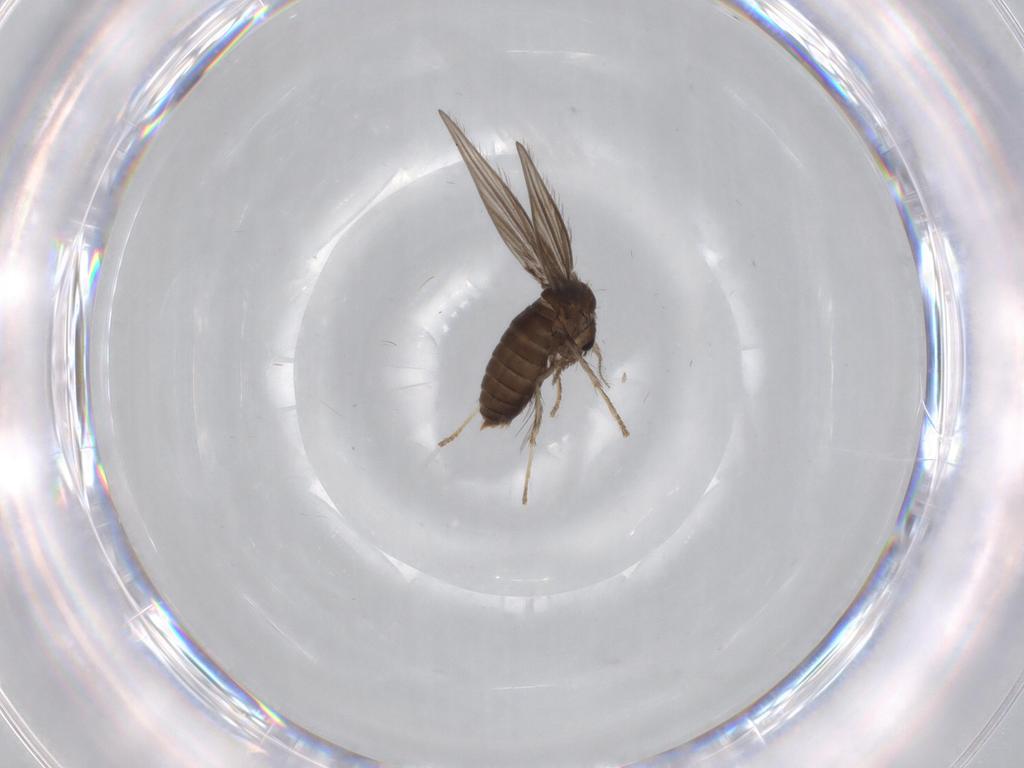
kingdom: Animalia
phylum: Arthropoda
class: Insecta
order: Diptera
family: Psychodidae
